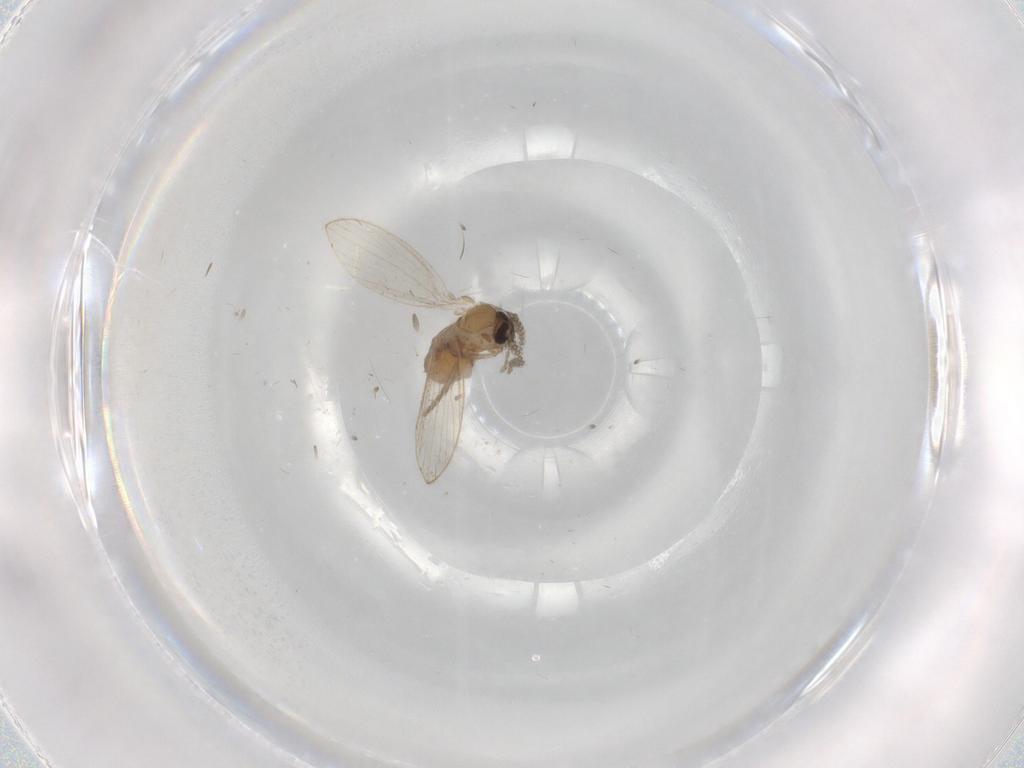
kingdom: Animalia
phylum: Arthropoda
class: Insecta
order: Diptera
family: Psychodidae
